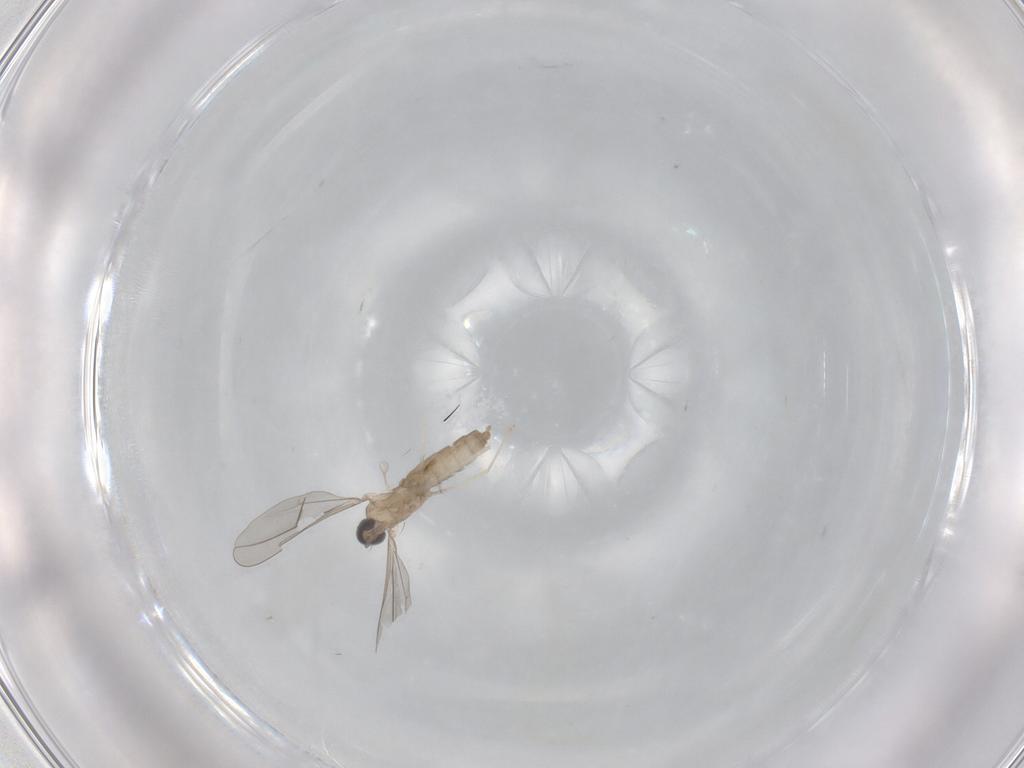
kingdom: Animalia
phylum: Arthropoda
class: Insecta
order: Diptera
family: Cecidomyiidae
